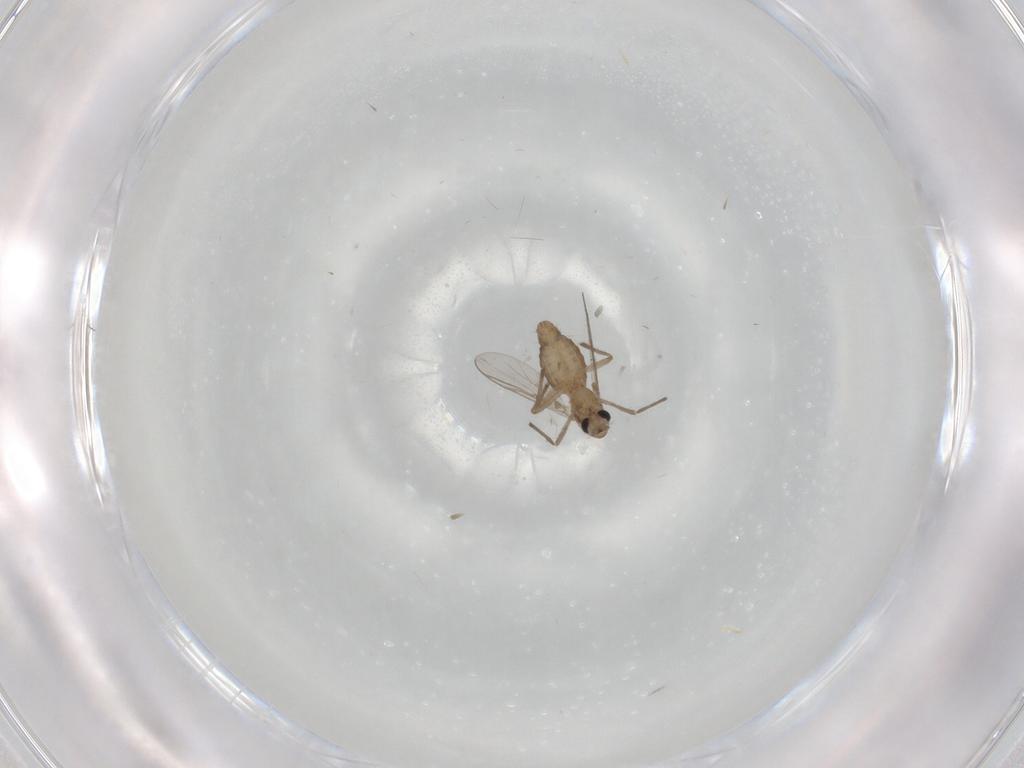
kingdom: Animalia
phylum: Arthropoda
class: Insecta
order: Diptera
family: Chironomidae
